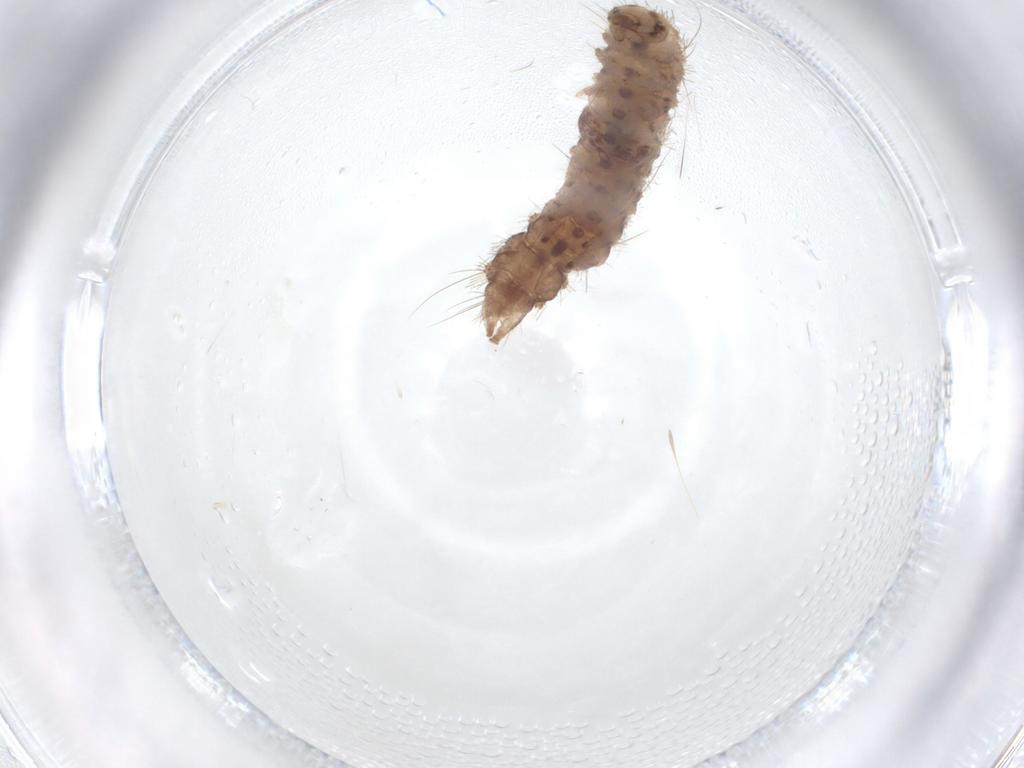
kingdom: Animalia
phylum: Arthropoda
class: Insecta
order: Lepidoptera
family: Erebidae
